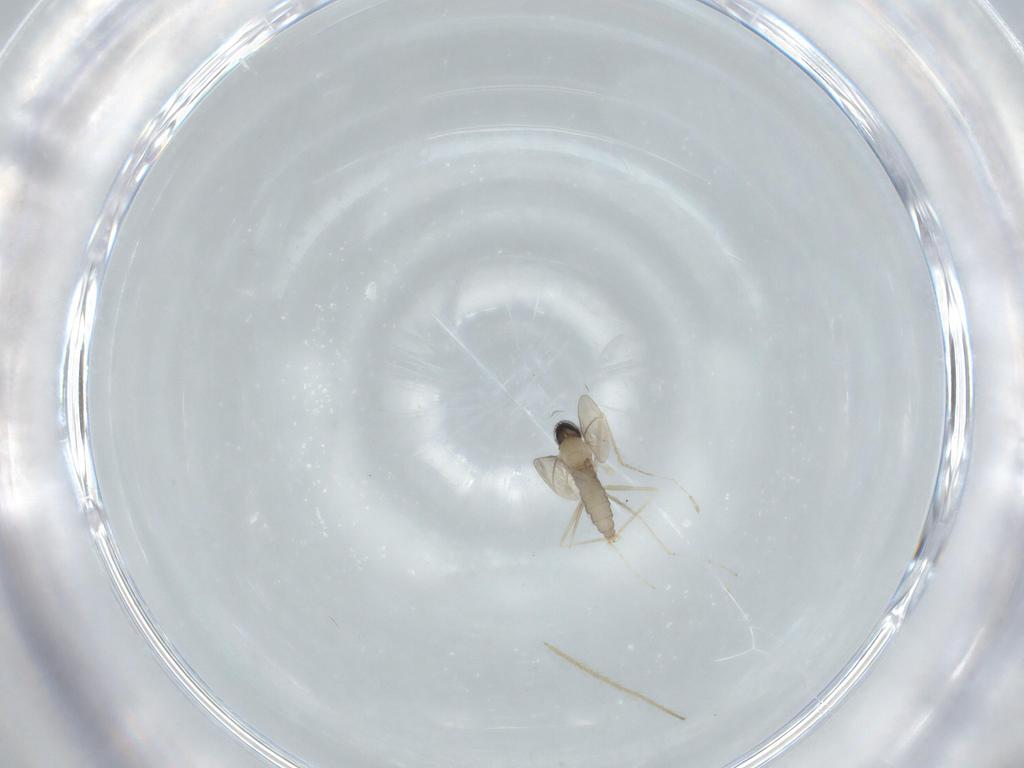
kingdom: Animalia
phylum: Arthropoda
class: Insecta
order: Diptera
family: Cecidomyiidae
